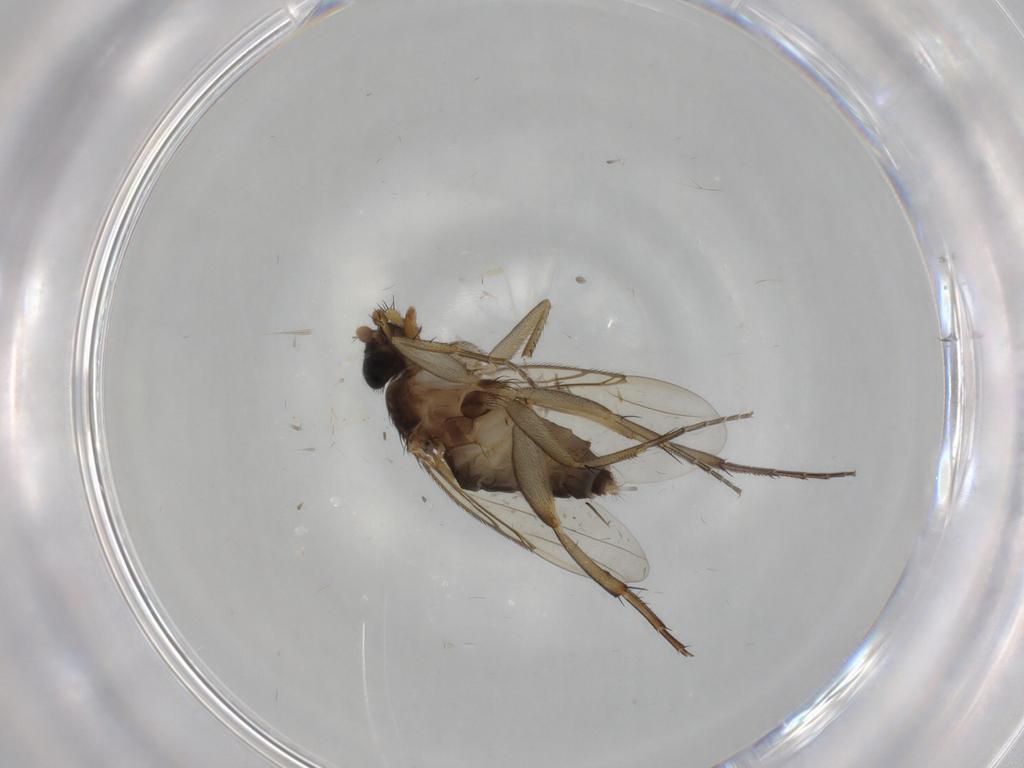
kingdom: Animalia
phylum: Arthropoda
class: Insecta
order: Diptera
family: Phoridae
